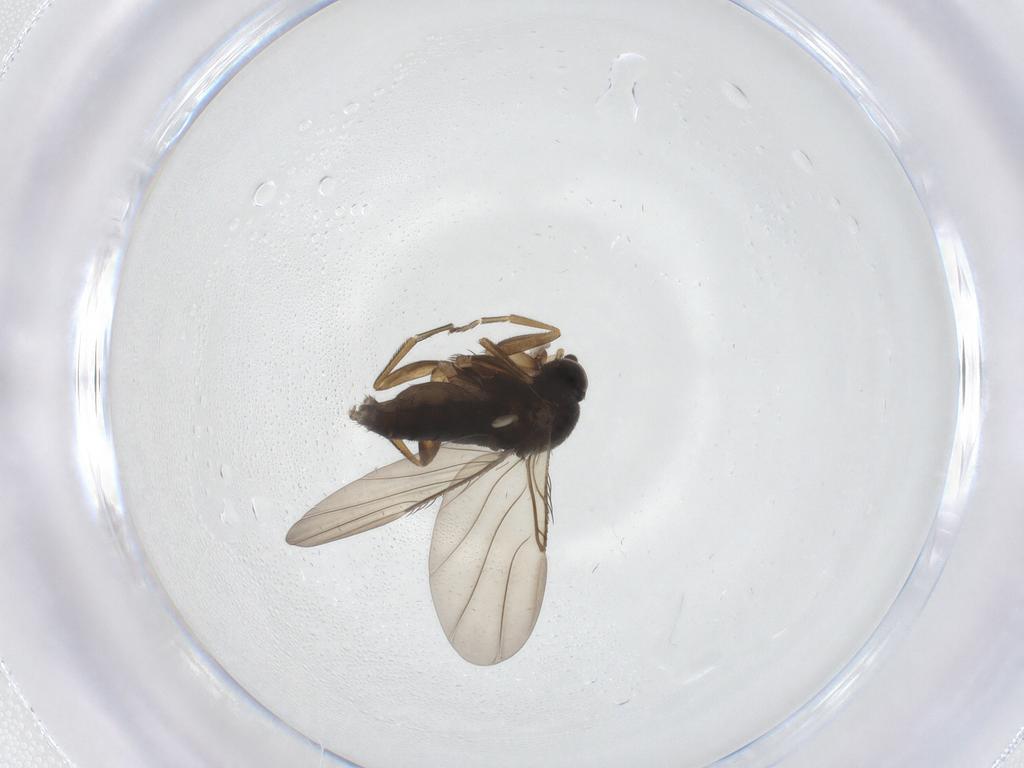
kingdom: Animalia
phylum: Arthropoda
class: Insecta
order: Diptera
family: Phoridae
